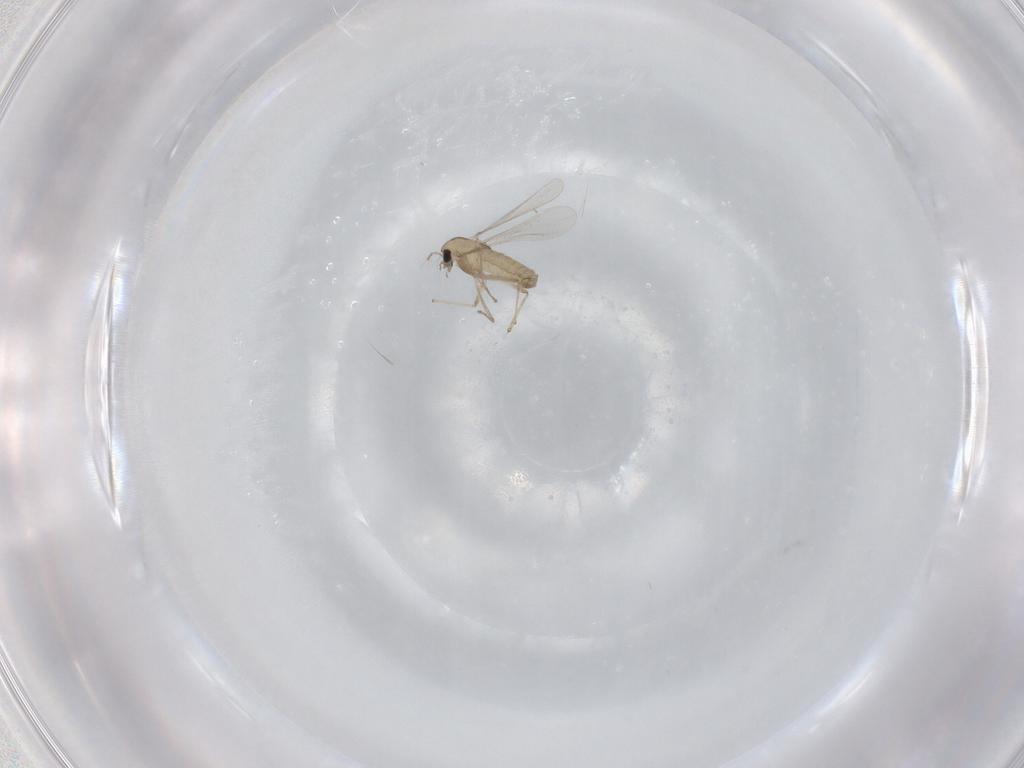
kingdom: Animalia
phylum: Arthropoda
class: Insecta
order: Diptera
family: Chironomidae
